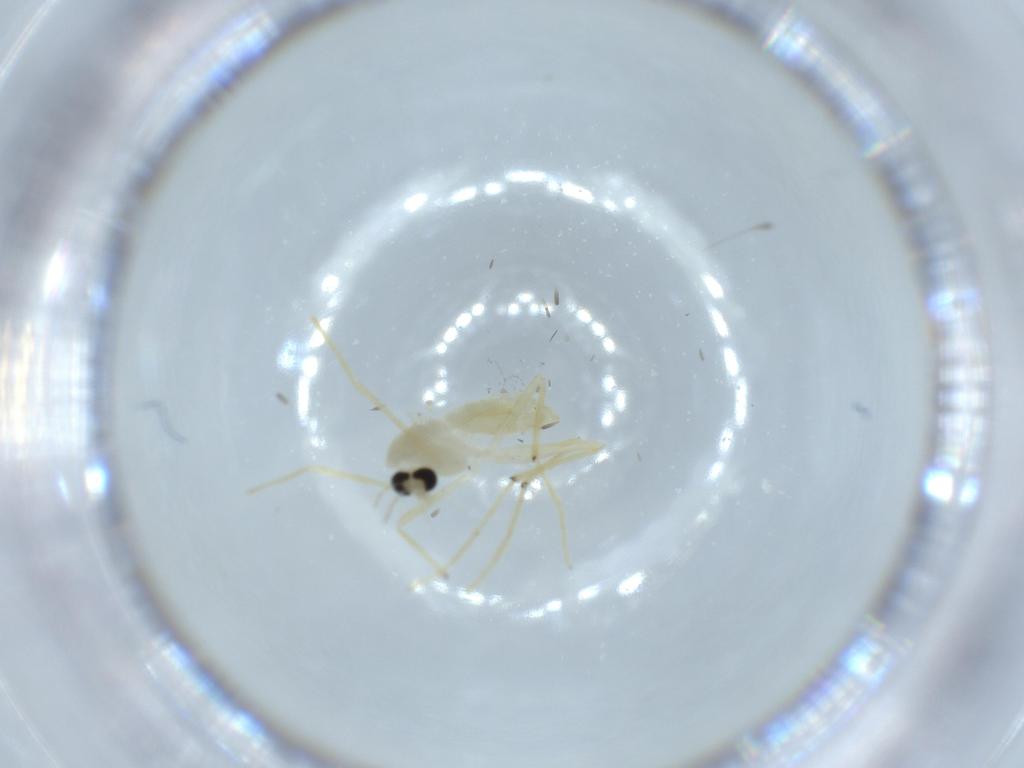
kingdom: Animalia
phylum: Arthropoda
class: Insecta
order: Diptera
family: Chironomidae
